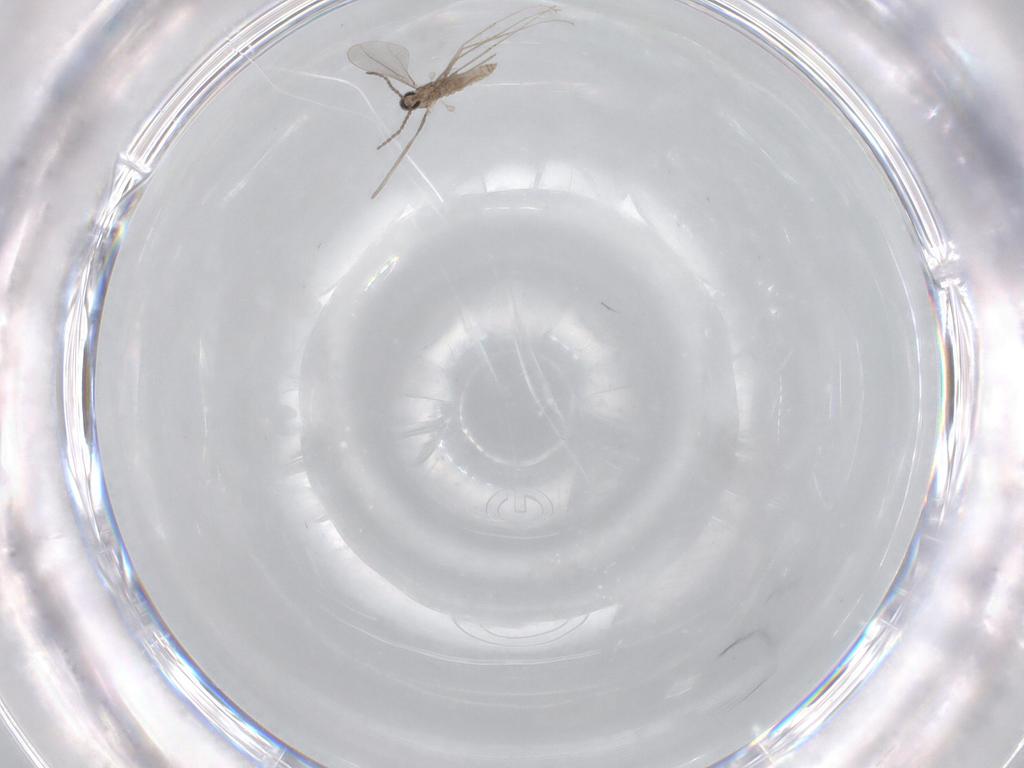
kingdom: Animalia
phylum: Arthropoda
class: Insecta
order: Diptera
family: Cecidomyiidae
